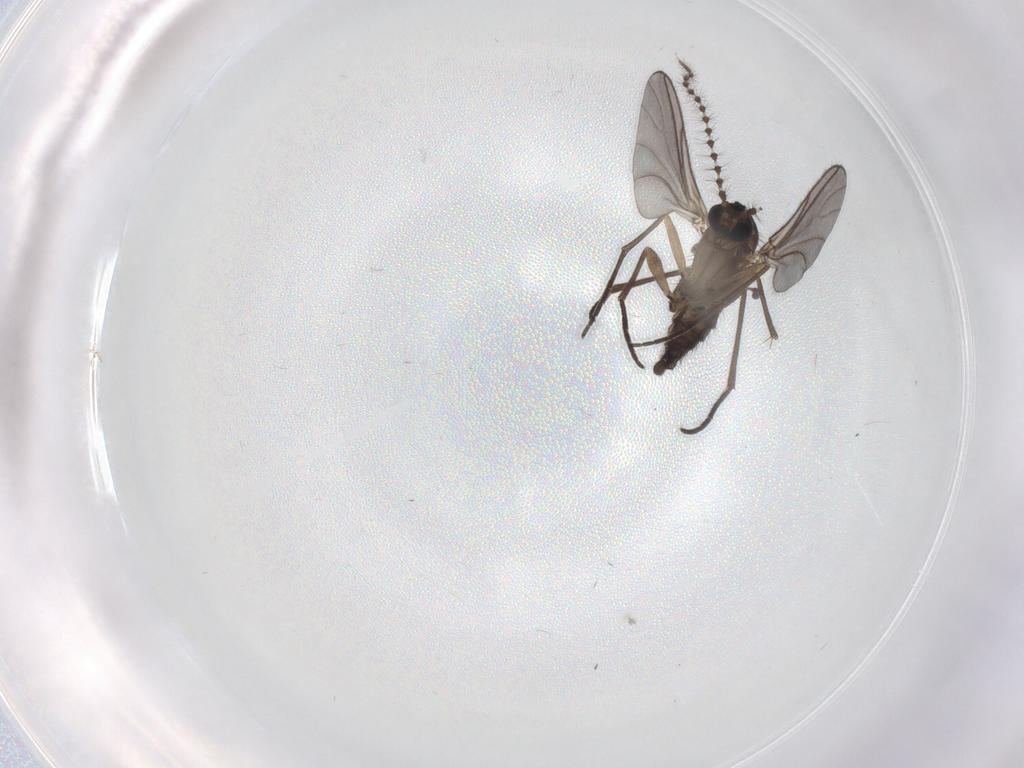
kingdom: Animalia
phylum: Arthropoda
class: Insecta
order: Diptera
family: Sciaridae
